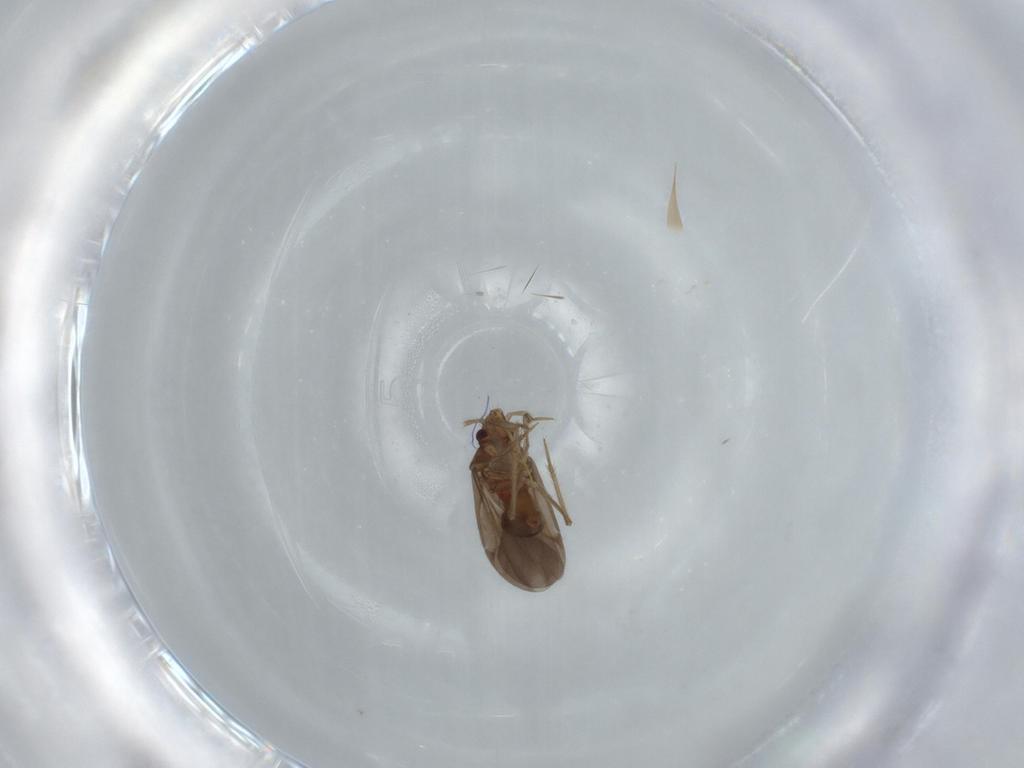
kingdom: Animalia
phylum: Arthropoda
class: Insecta
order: Hemiptera
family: Ceratocombidae
